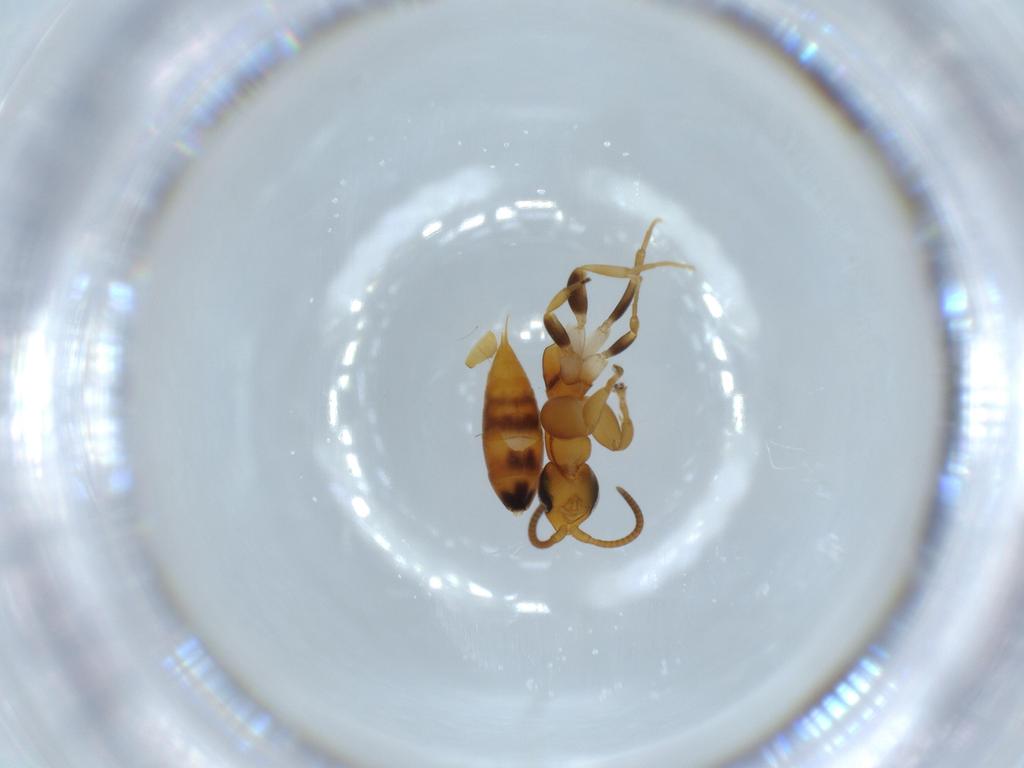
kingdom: Animalia
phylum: Arthropoda
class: Insecta
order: Hymenoptera
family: Sclerogibbidae
